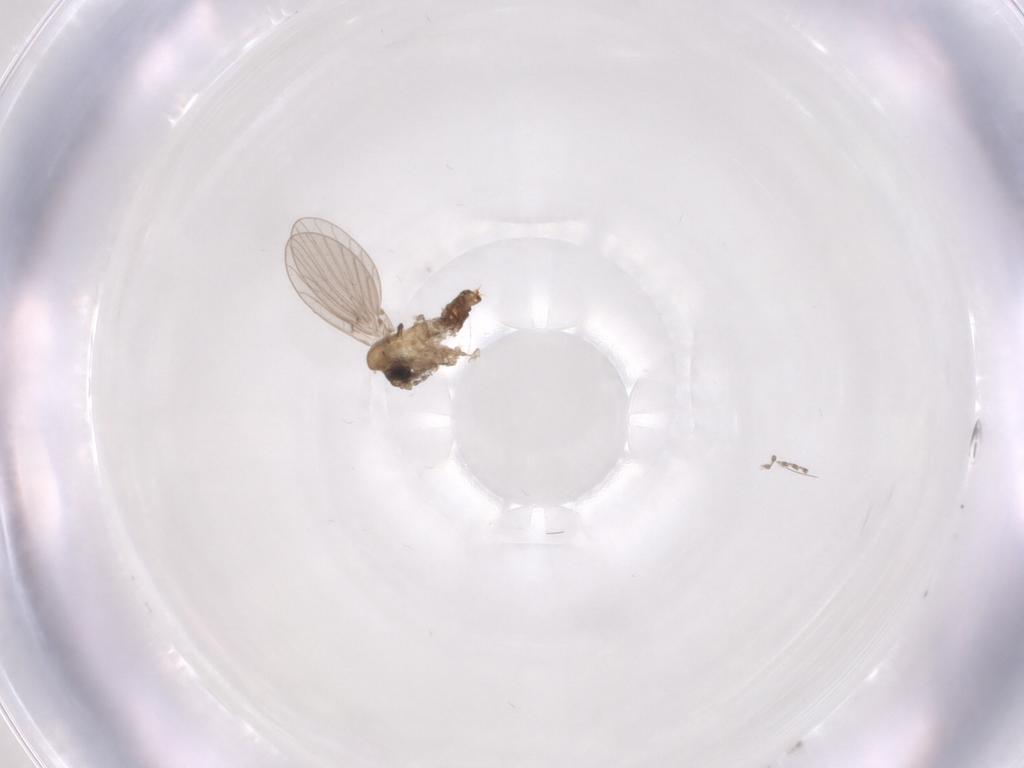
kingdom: Animalia
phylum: Arthropoda
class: Insecta
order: Diptera
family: Psychodidae
